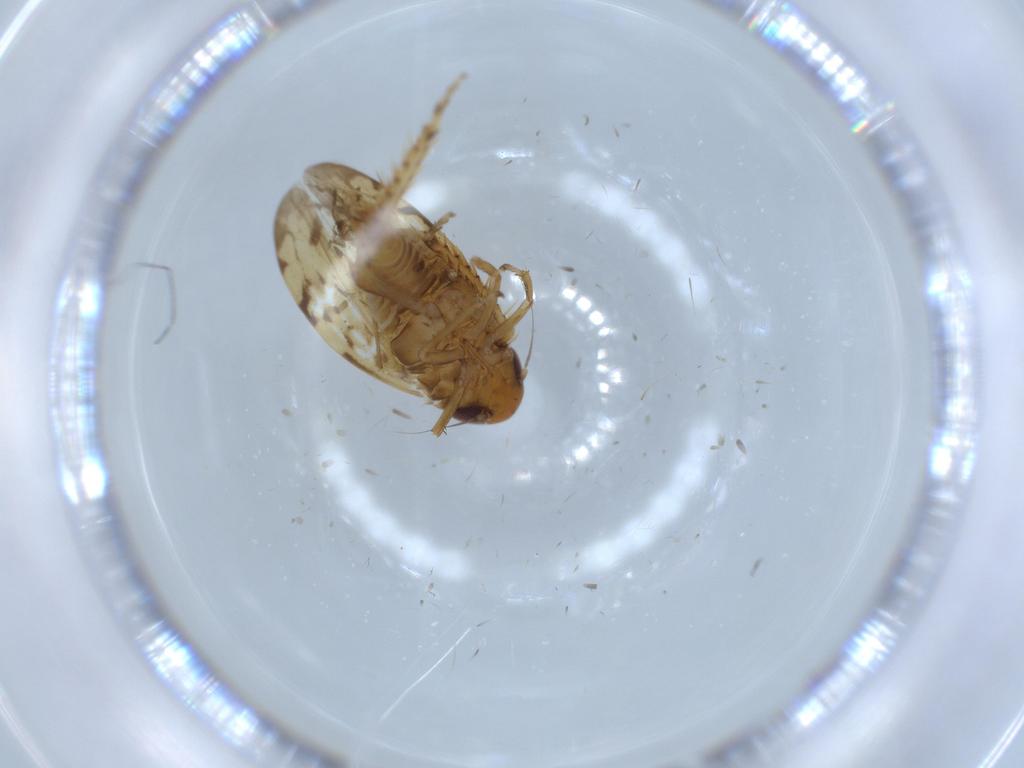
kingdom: Animalia
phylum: Arthropoda
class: Insecta
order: Hemiptera
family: Cicadellidae
